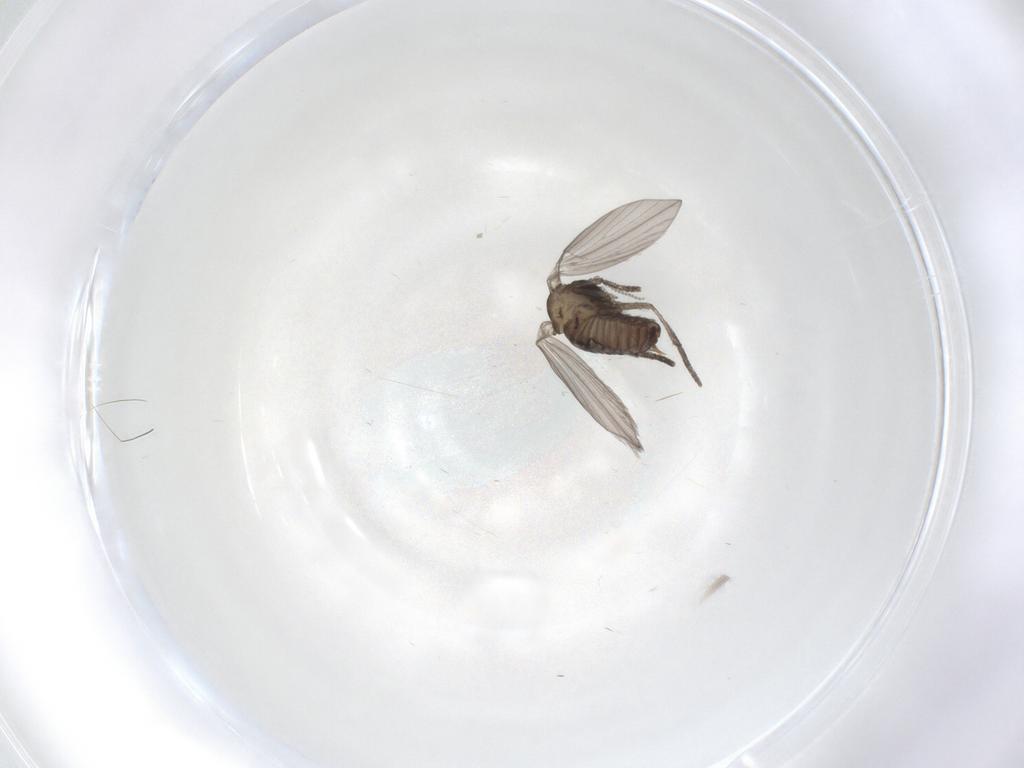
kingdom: Animalia
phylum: Arthropoda
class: Insecta
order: Diptera
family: Psychodidae
